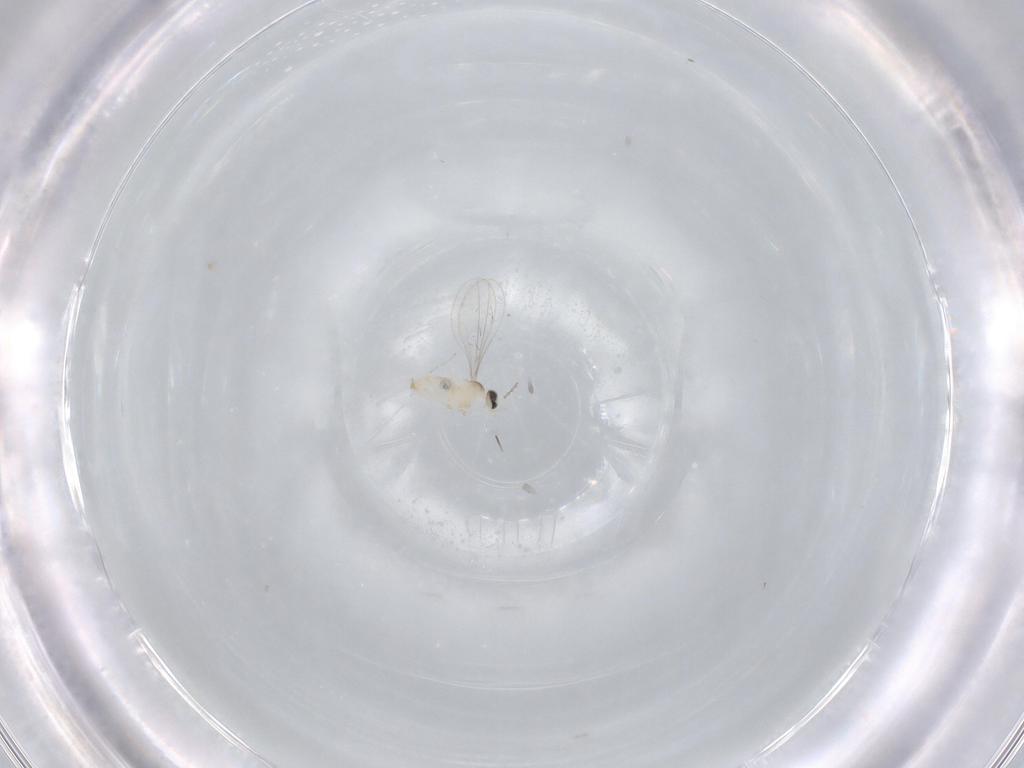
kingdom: Animalia
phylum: Arthropoda
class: Insecta
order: Diptera
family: Cecidomyiidae
